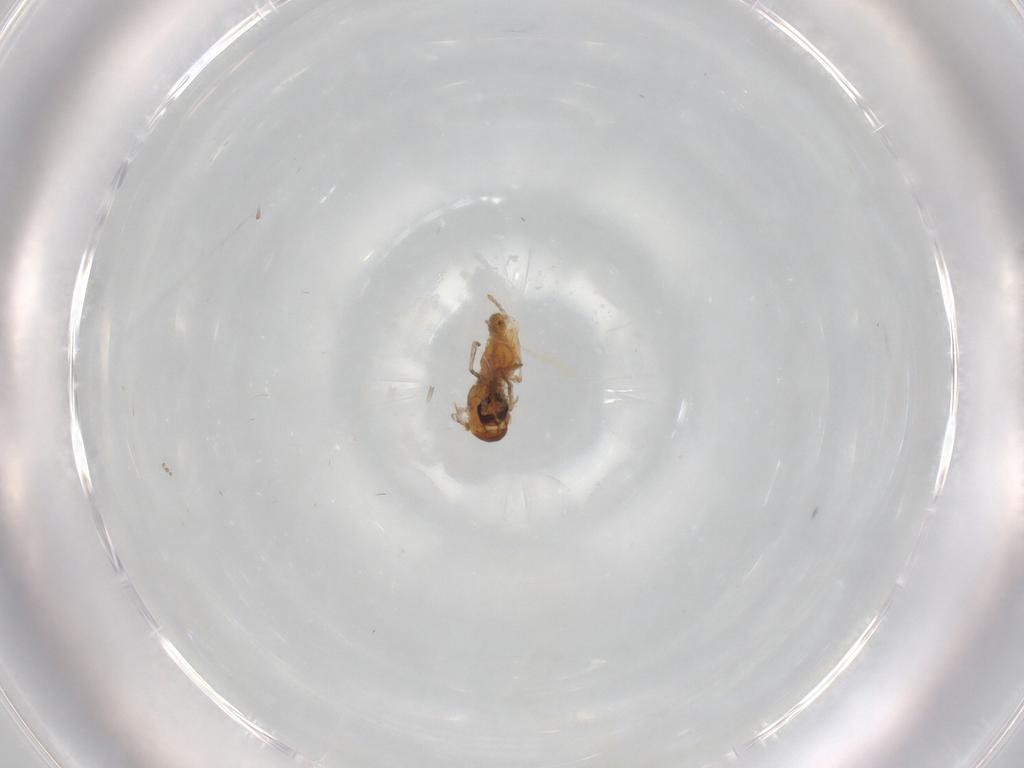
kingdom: Animalia
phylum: Arthropoda
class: Insecta
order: Diptera
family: Psychodidae
